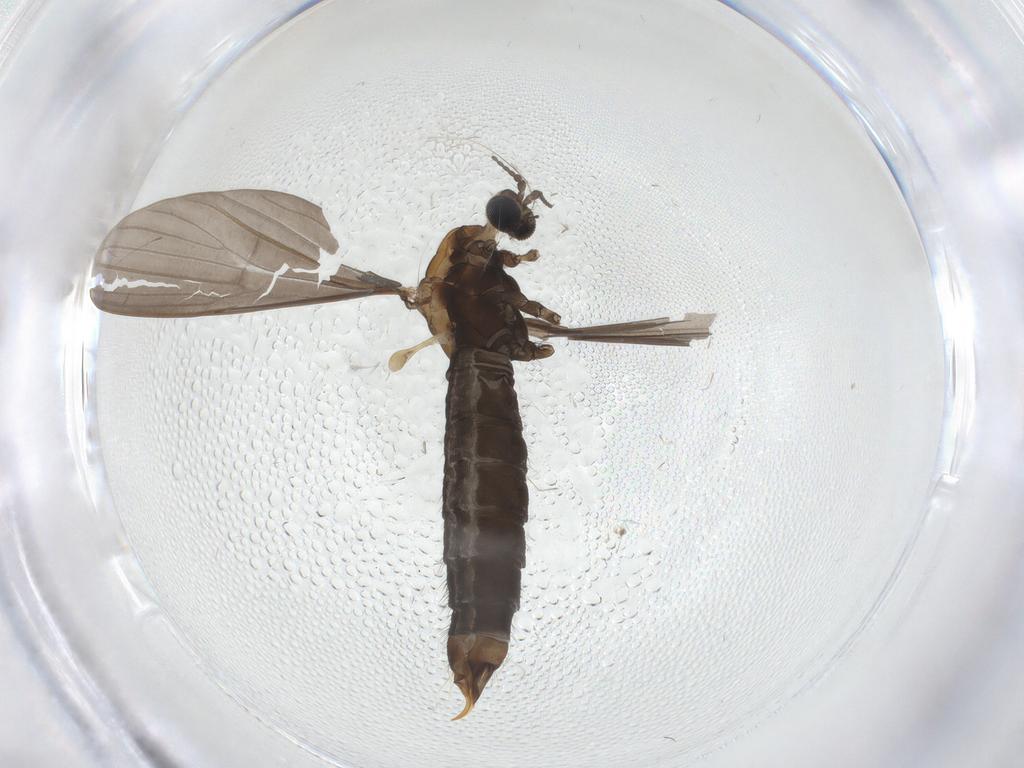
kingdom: Animalia
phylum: Arthropoda
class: Insecta
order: Diptera
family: Limoniidae
